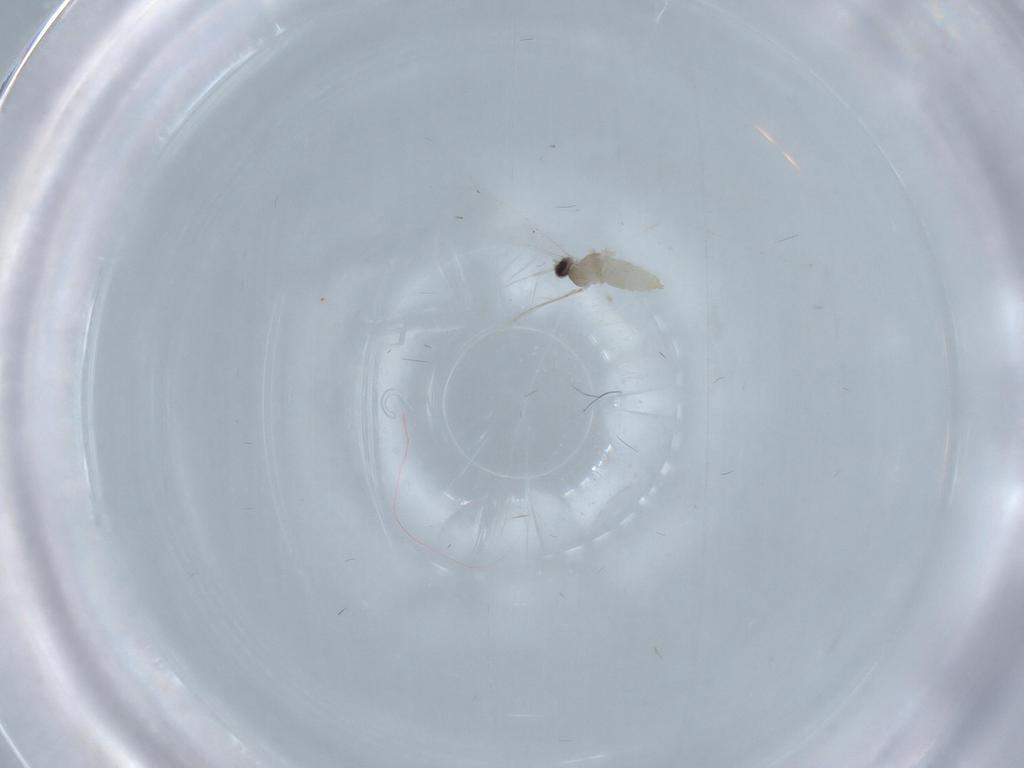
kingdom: Animalia
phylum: Arthropoda
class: Insecta
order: Diptera
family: Cecidomyiidae
